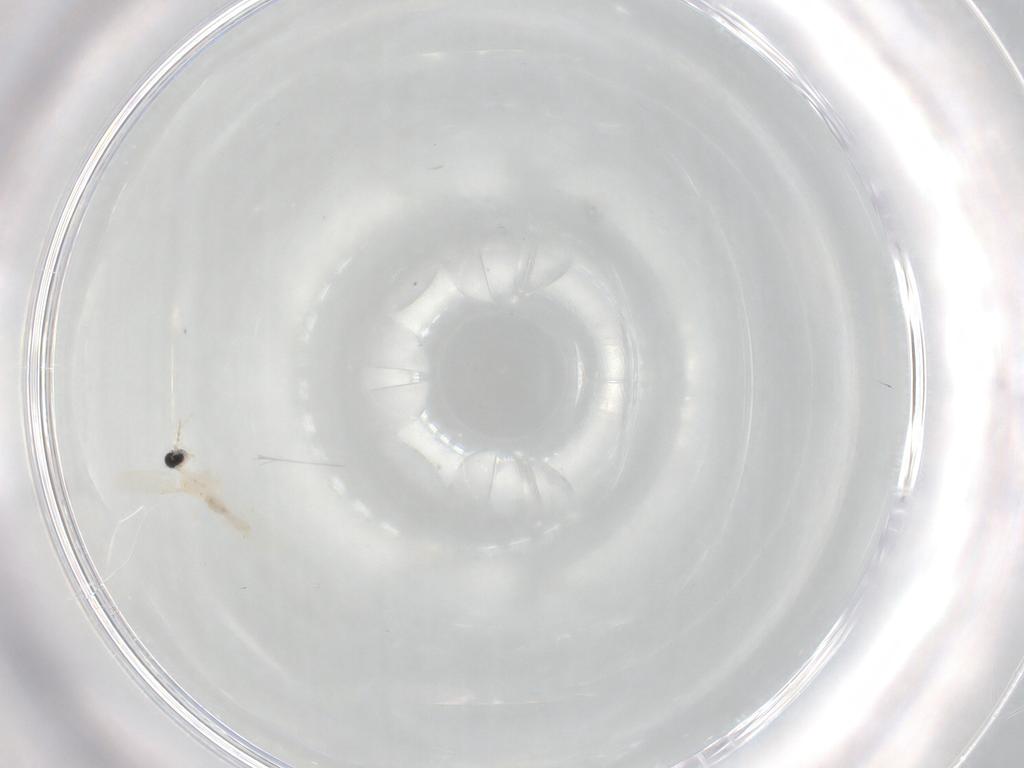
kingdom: Animalia
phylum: Arthropoda
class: Insecta
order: Diptera
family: Cecidomyiidae
